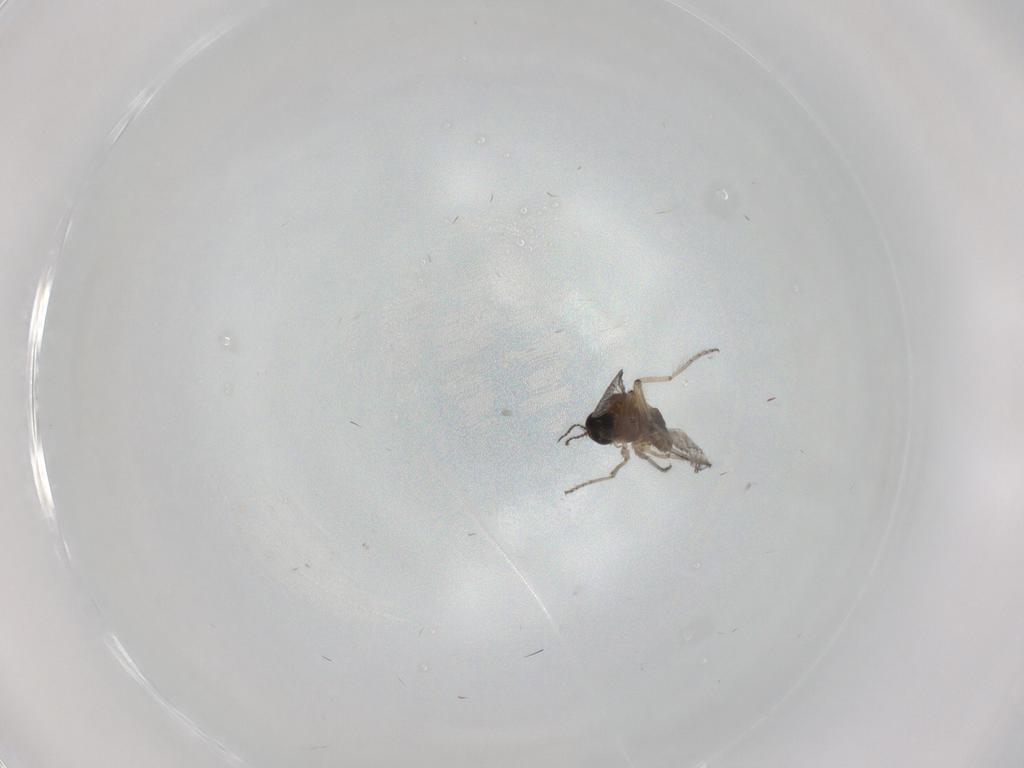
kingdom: Animalia
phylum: Arthropoda
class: Insecta
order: Diptera
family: Ceratopogonidae
